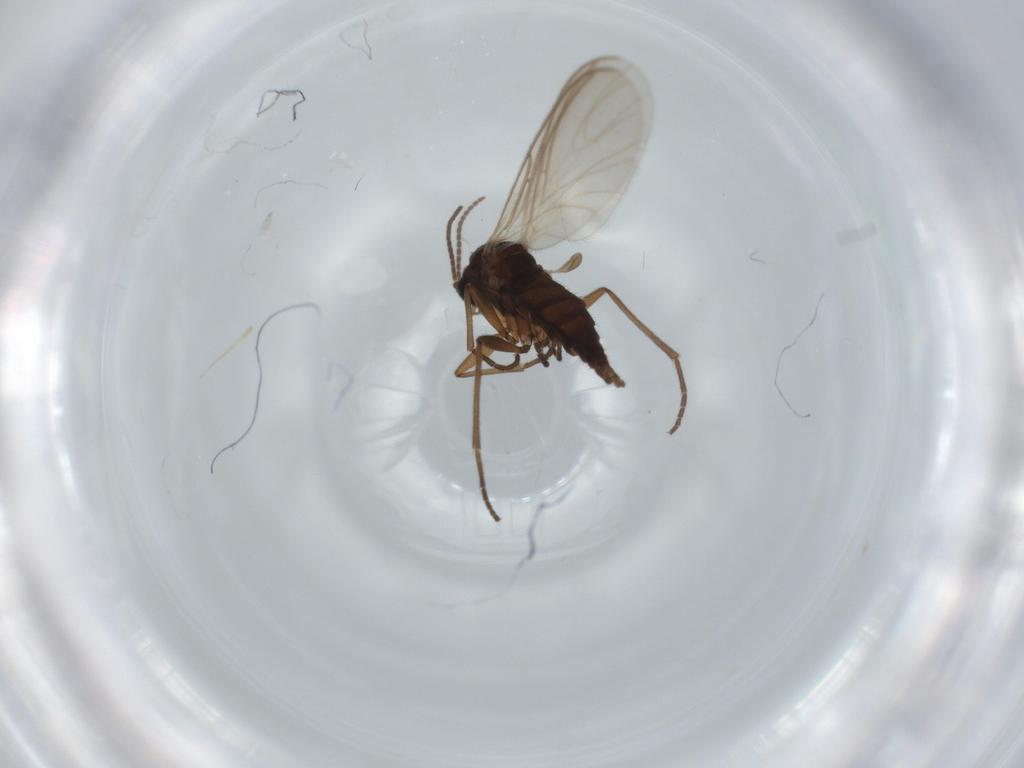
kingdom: Animalia
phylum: Arthropoda
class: Insecta
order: Diptera
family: Sciaridae
